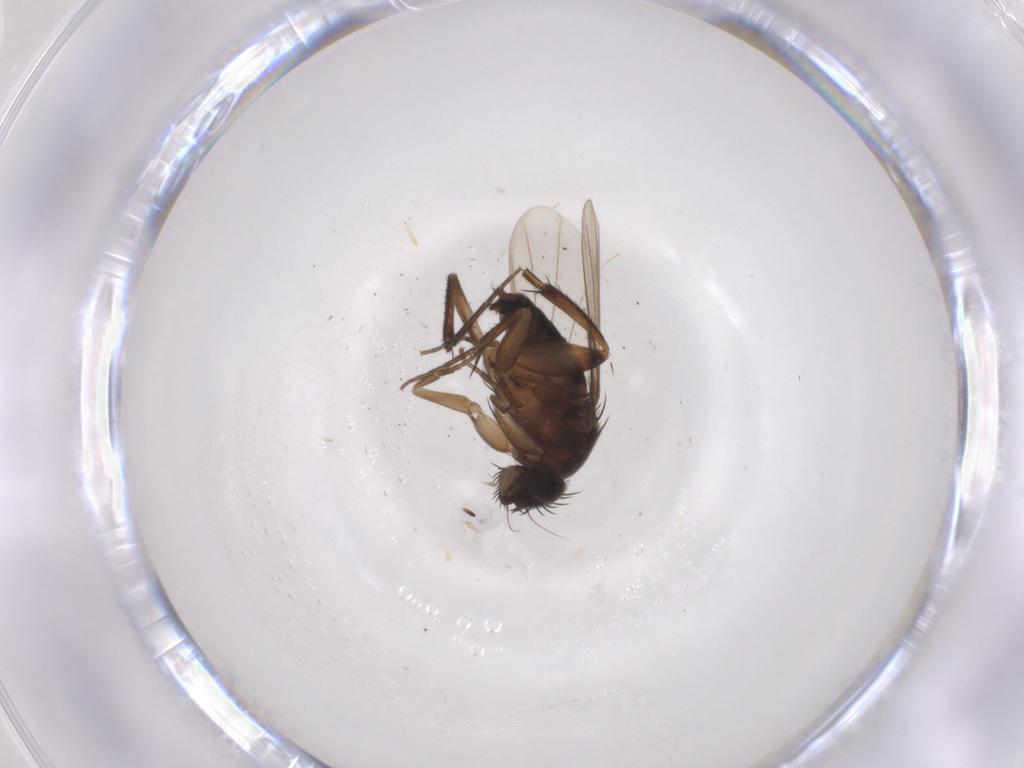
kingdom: Animalia
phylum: Arthropoda
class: Insecta
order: Diptera
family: Phoridae
